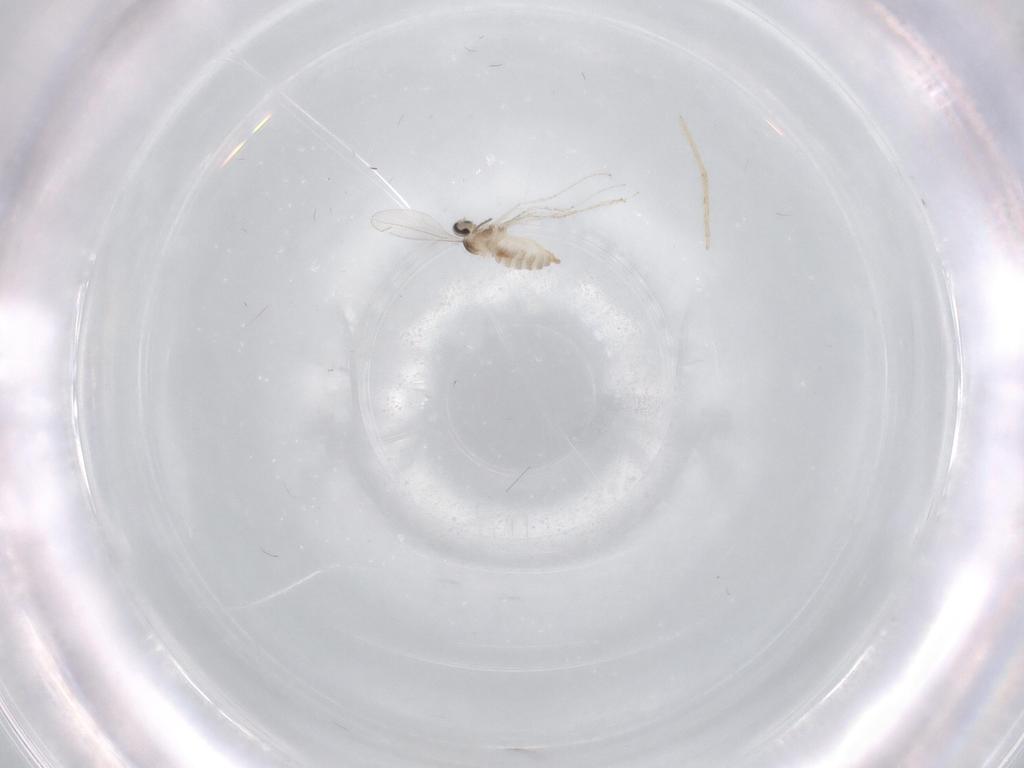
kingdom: Animalia
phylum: Arthropoda
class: Insecta
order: Diptera
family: Cecidomyiidae
